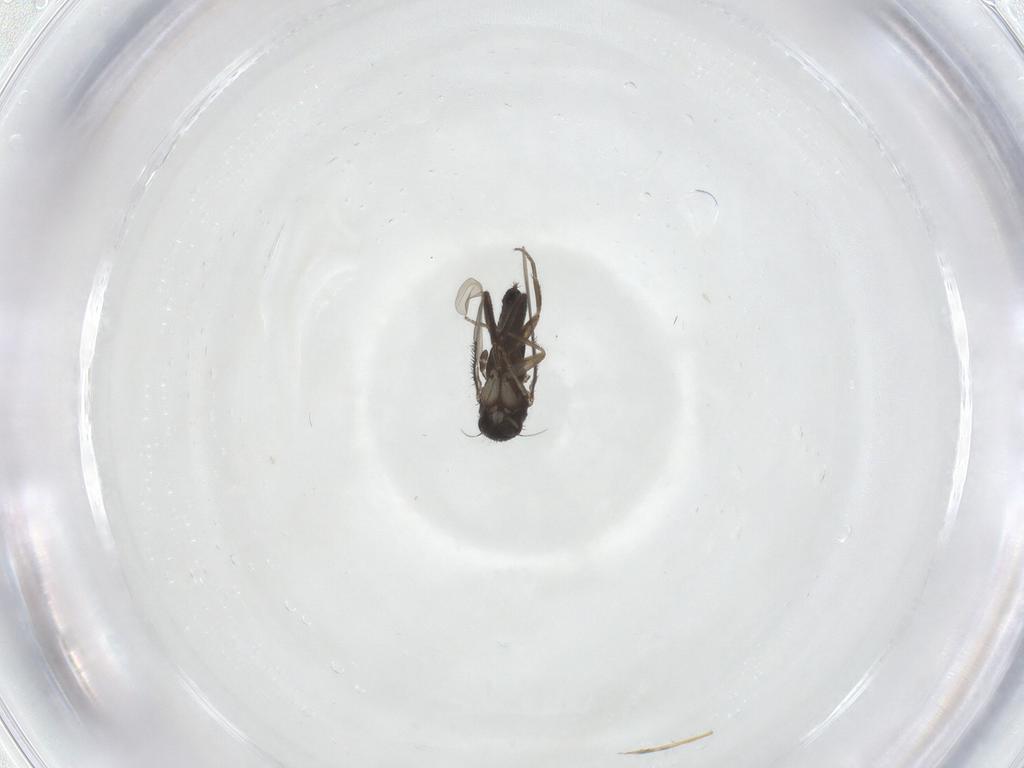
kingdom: Animalia
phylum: Arthropoda
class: Insecta
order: Diptera
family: Phoridae
